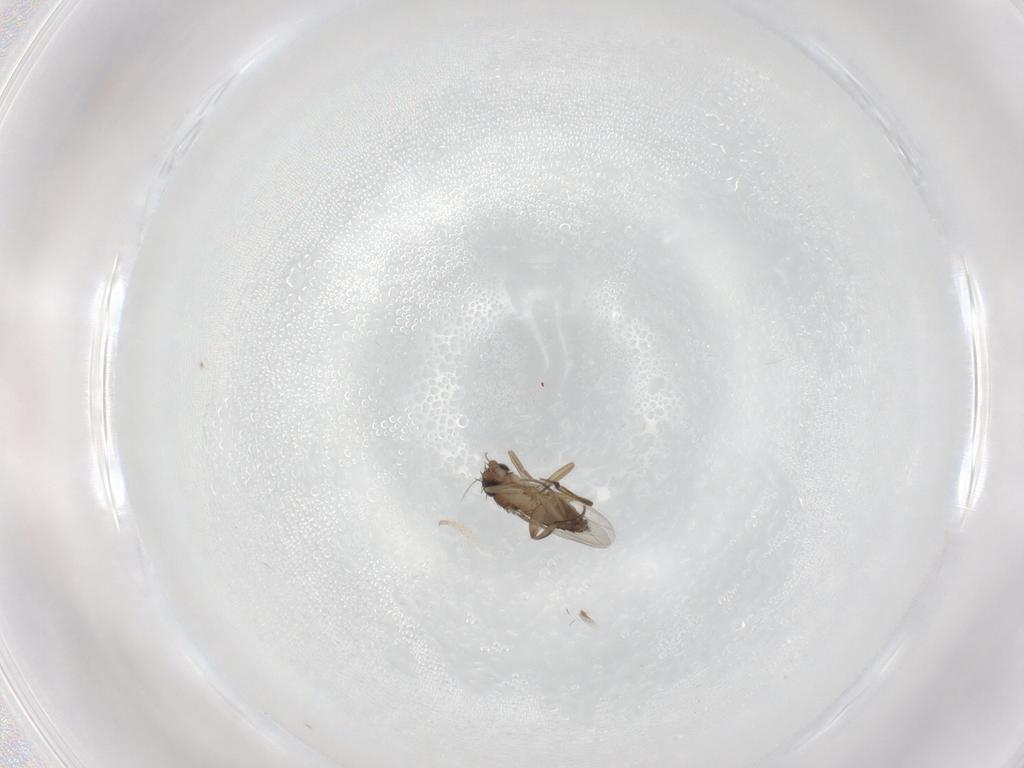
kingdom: Animalia
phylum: Arthropoda
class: Insecta
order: Diptera
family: Phoridae
